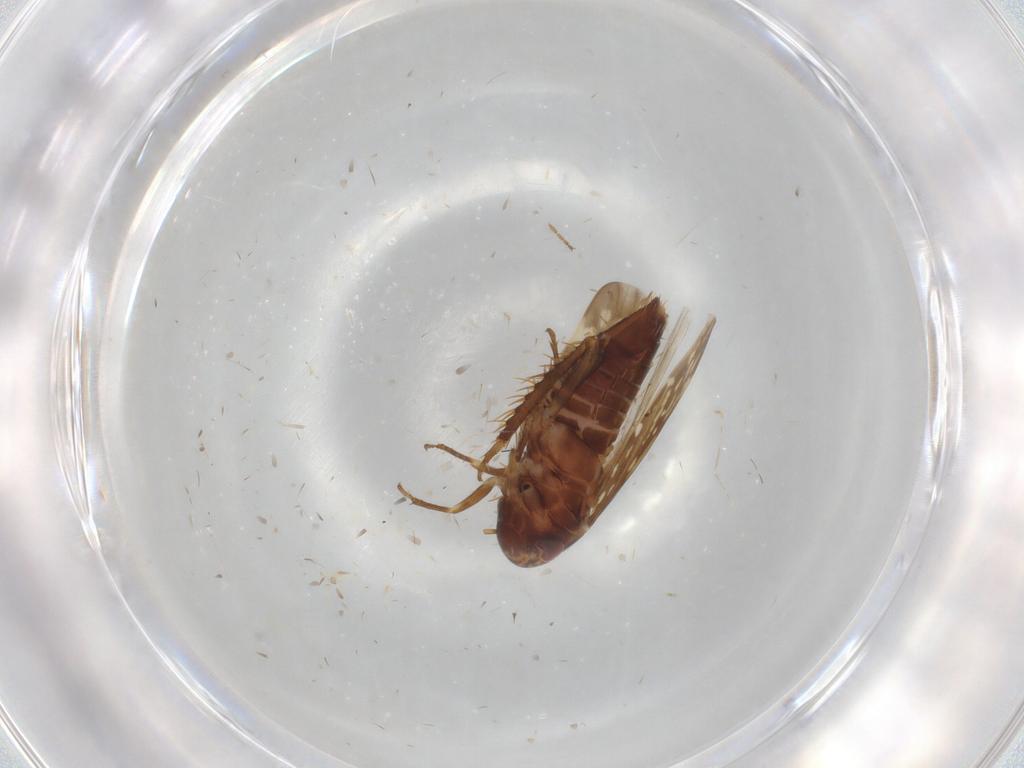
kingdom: Animalia
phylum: Arthropoda
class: Insecta
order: Hemiptera
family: Cicadellidae
